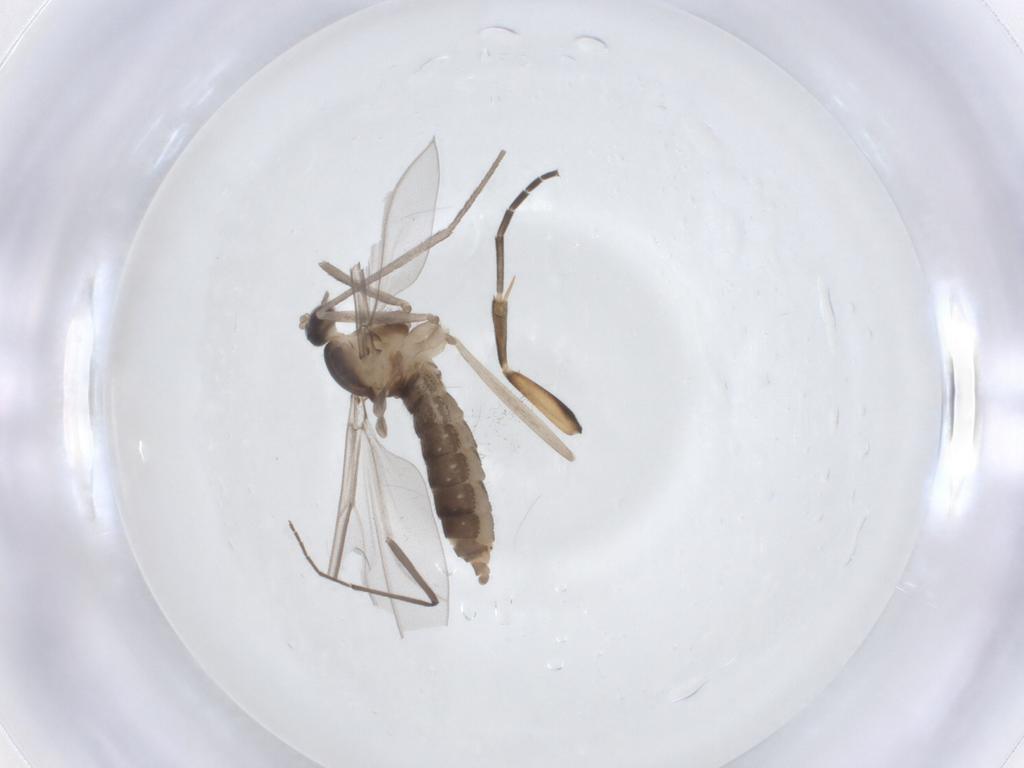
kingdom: Animalia
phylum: Arthropoda
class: Insecta
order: Diptera
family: Cecidomyiidae
